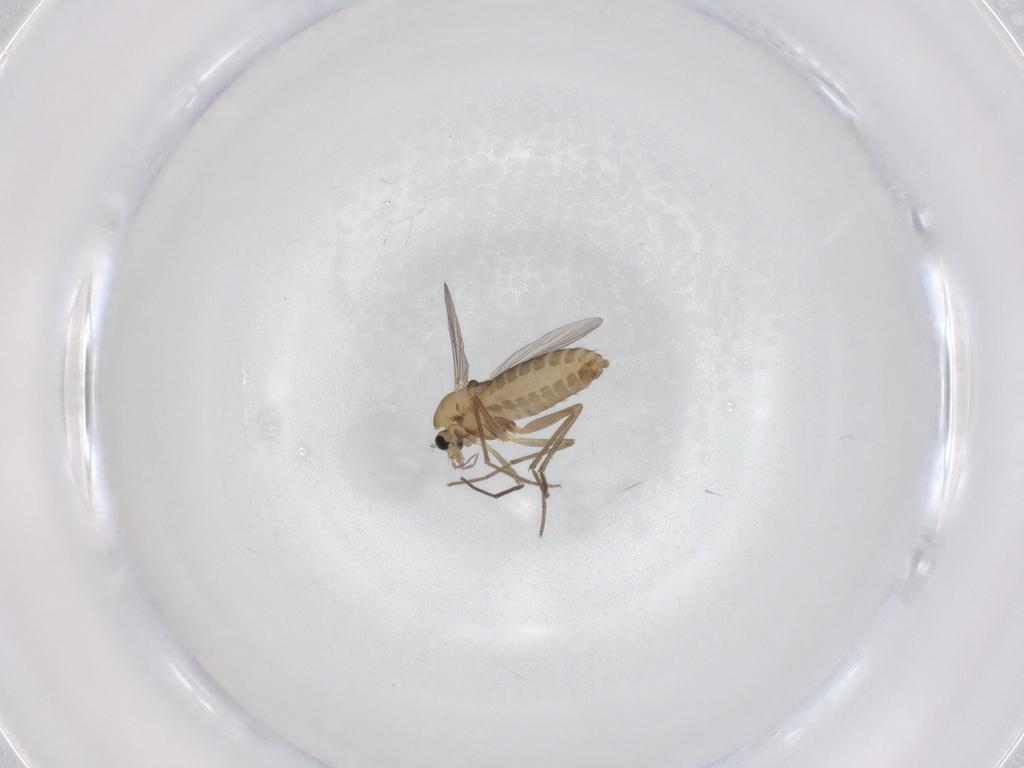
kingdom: Animalia
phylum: Arthropoda
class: Insecta
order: Diptera
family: Chironomidae
